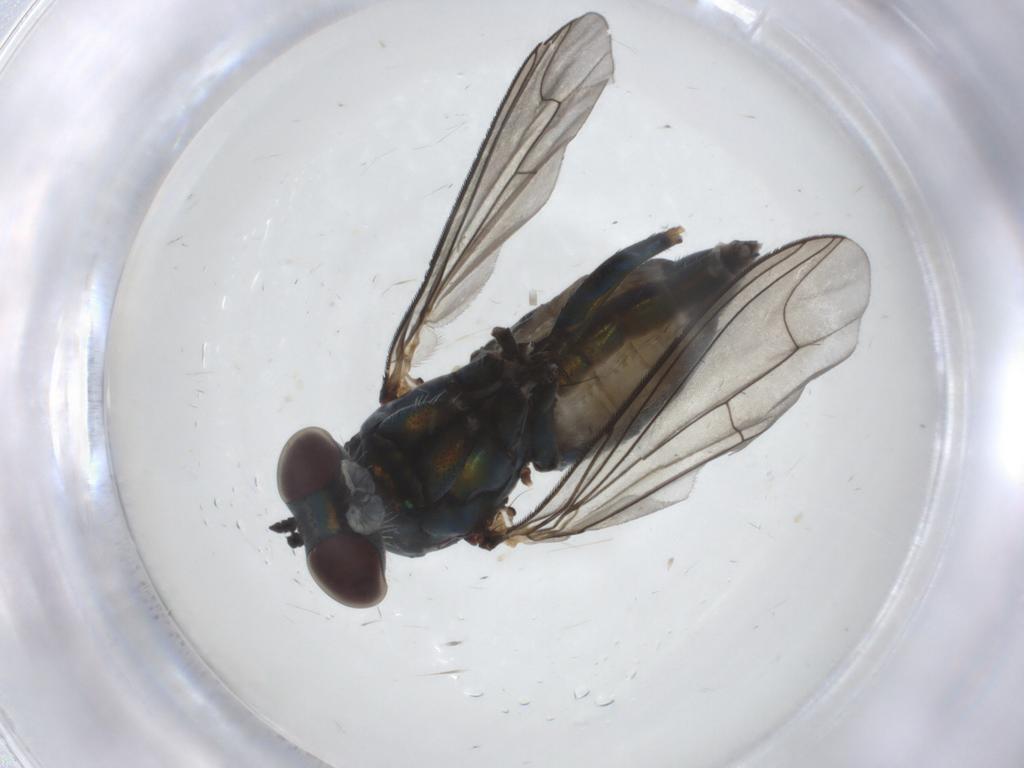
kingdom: Animalia
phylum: Arthropoda
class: Insecta
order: Diptera
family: Dolichopodidae
